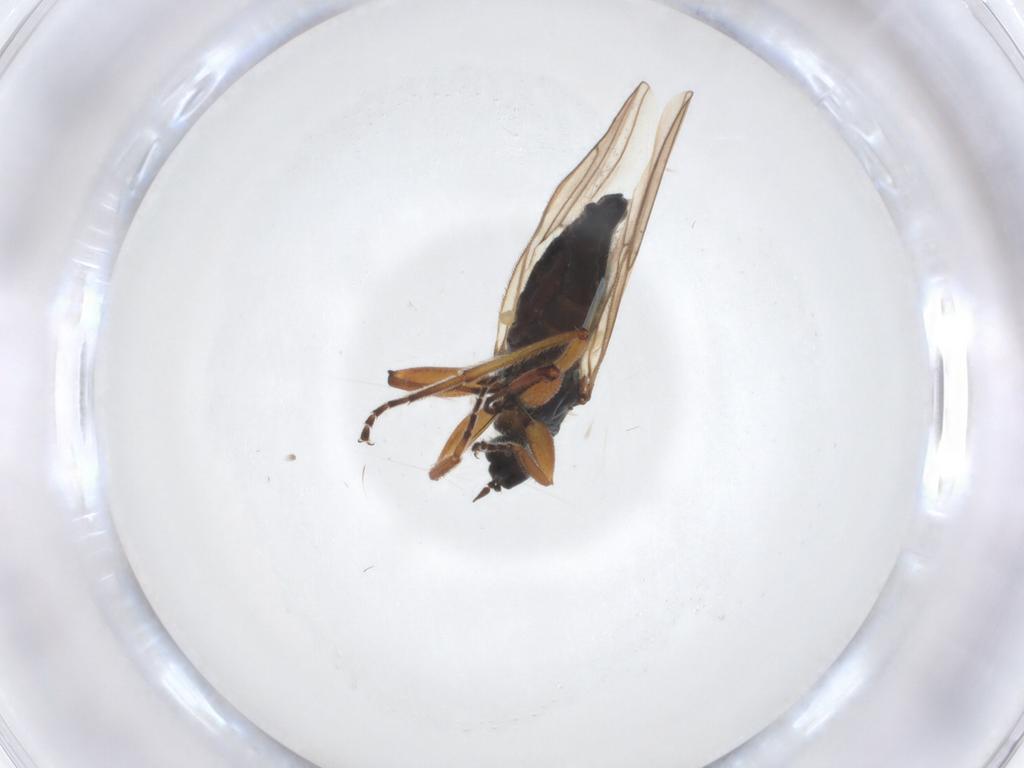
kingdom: Animalia
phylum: Arthropoda
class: Insecta
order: Diptera
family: Hybotidae
